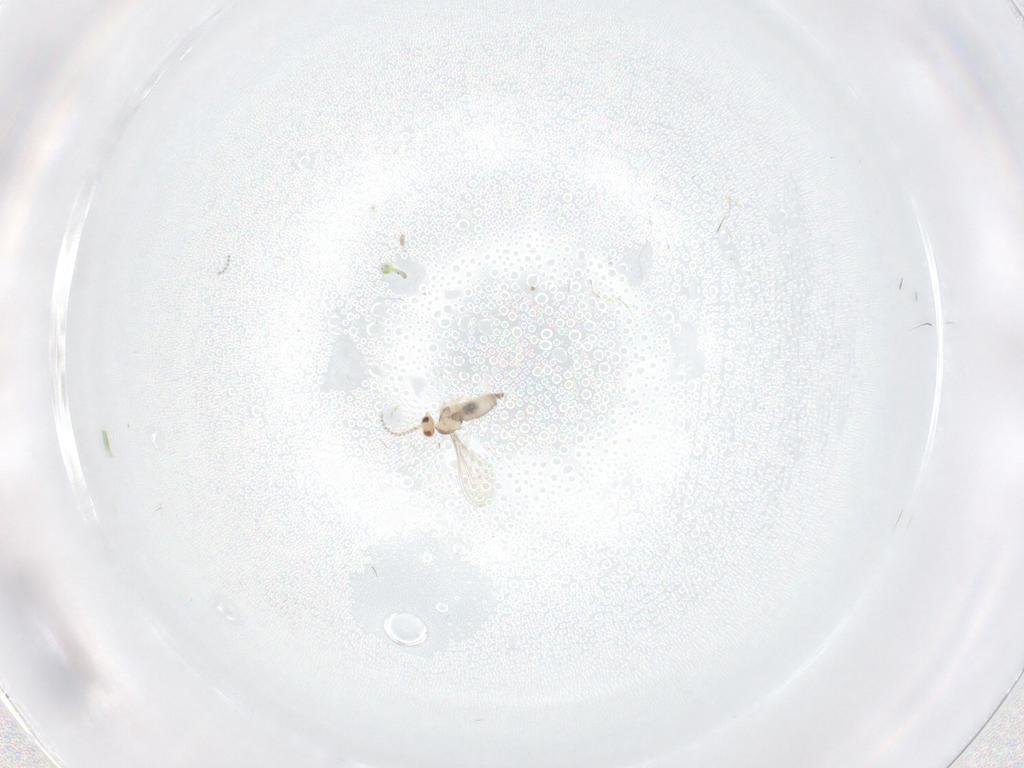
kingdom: Animalia
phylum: Arthropoda
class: Insecta
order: Diptera
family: Cecidomyiidae
